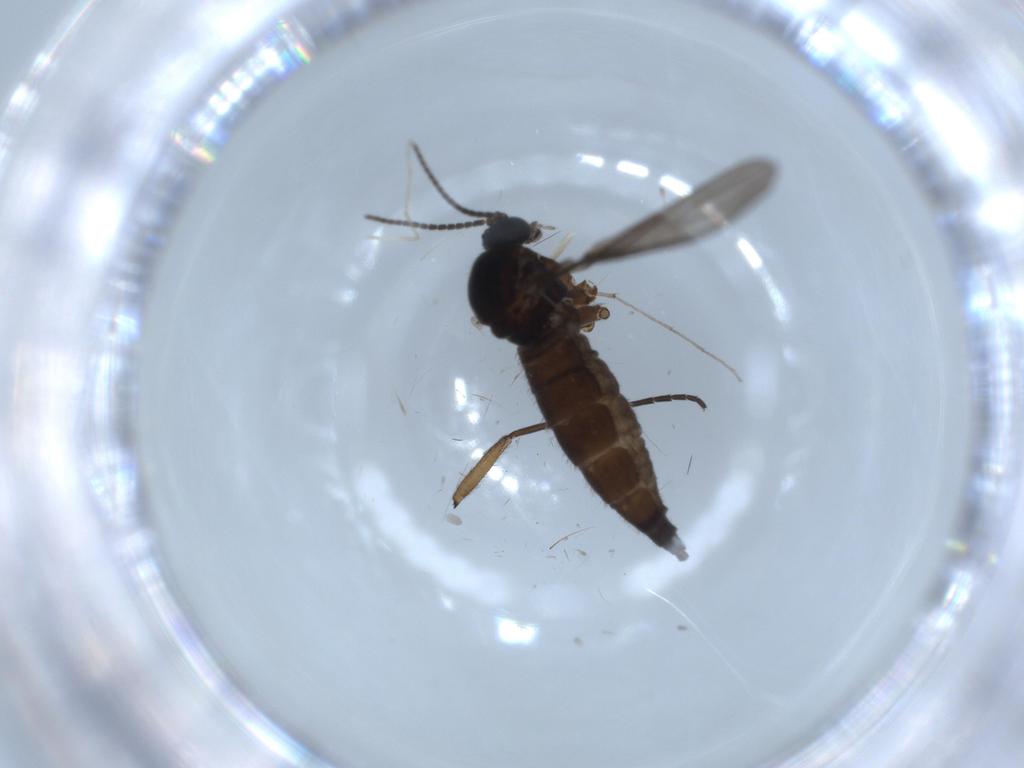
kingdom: Animalia
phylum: Arthropoda
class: Insecta
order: Diptera
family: Sciaridae
